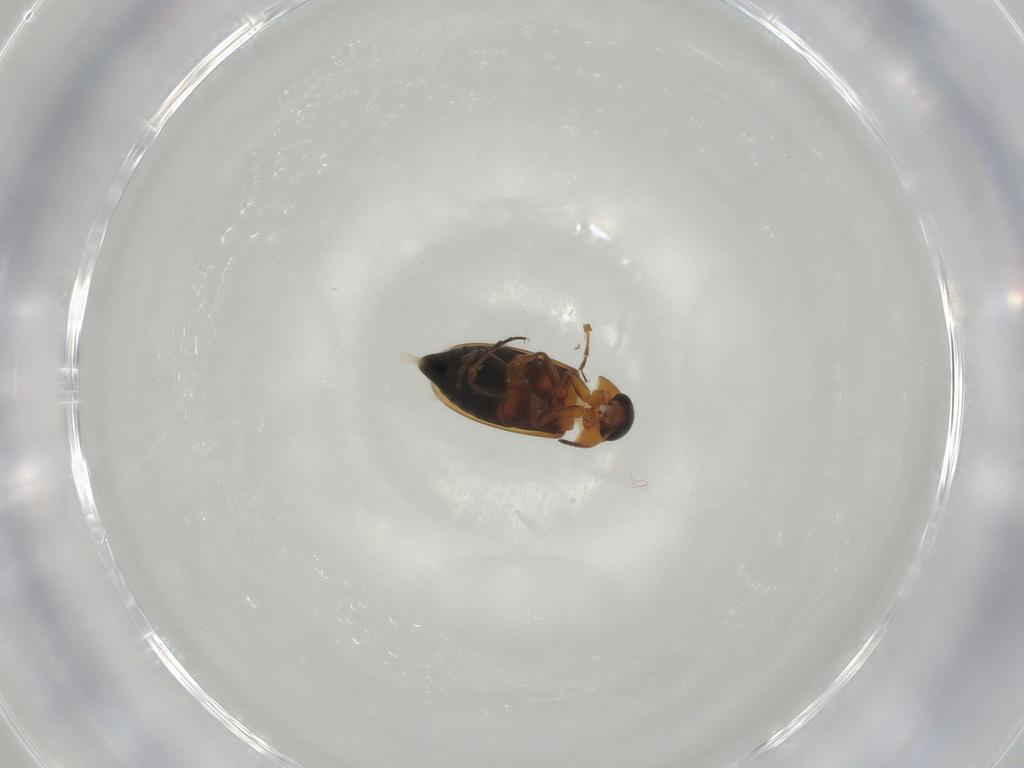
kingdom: Animalia
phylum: Arthropoda
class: Insecta
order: Coleoptera
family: Scraptiidae
